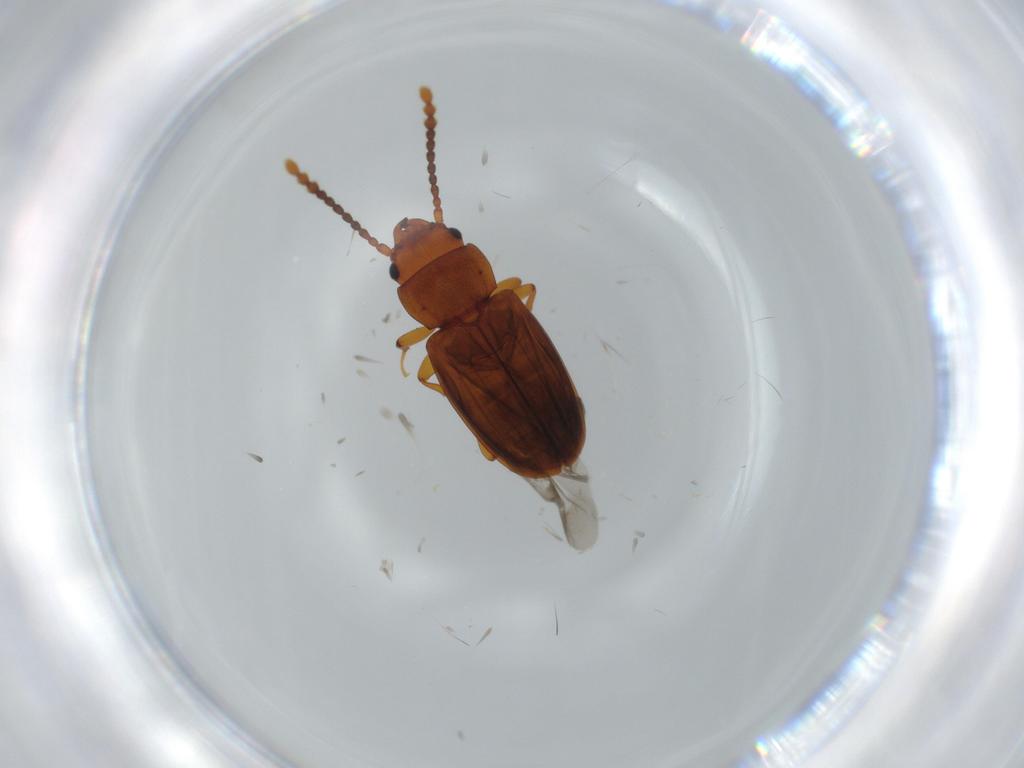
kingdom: Animalia
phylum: Arthropoda
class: Insecta
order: Coleoptera
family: Laemophloeidae
